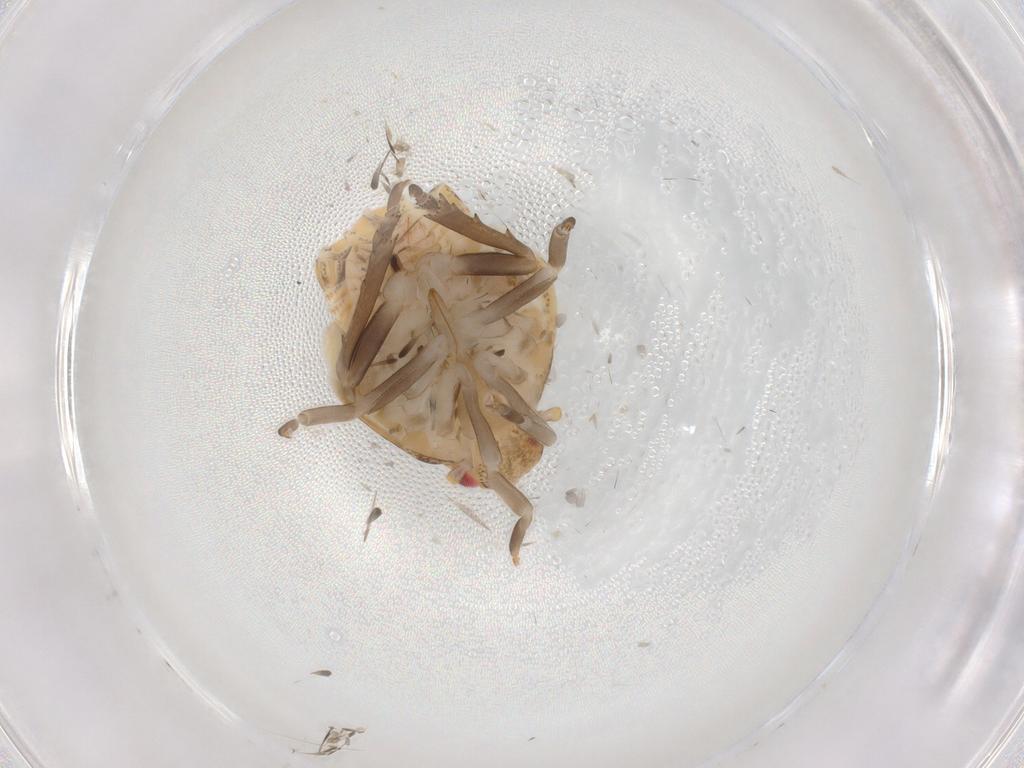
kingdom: Animalia
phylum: Arthropoda
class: Insecta
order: Hemiptera
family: Fulgoroidea_incertae_sedis
